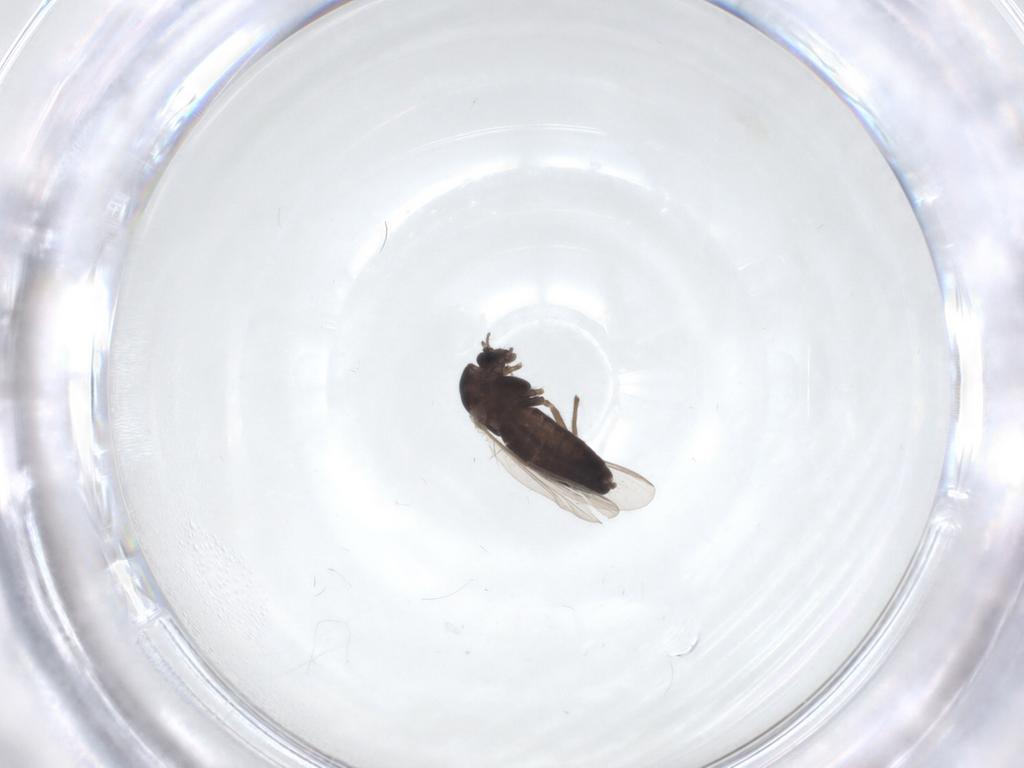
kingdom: Animalia
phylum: Arthropoda
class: Insecta
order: Diptera
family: Chironomidae
